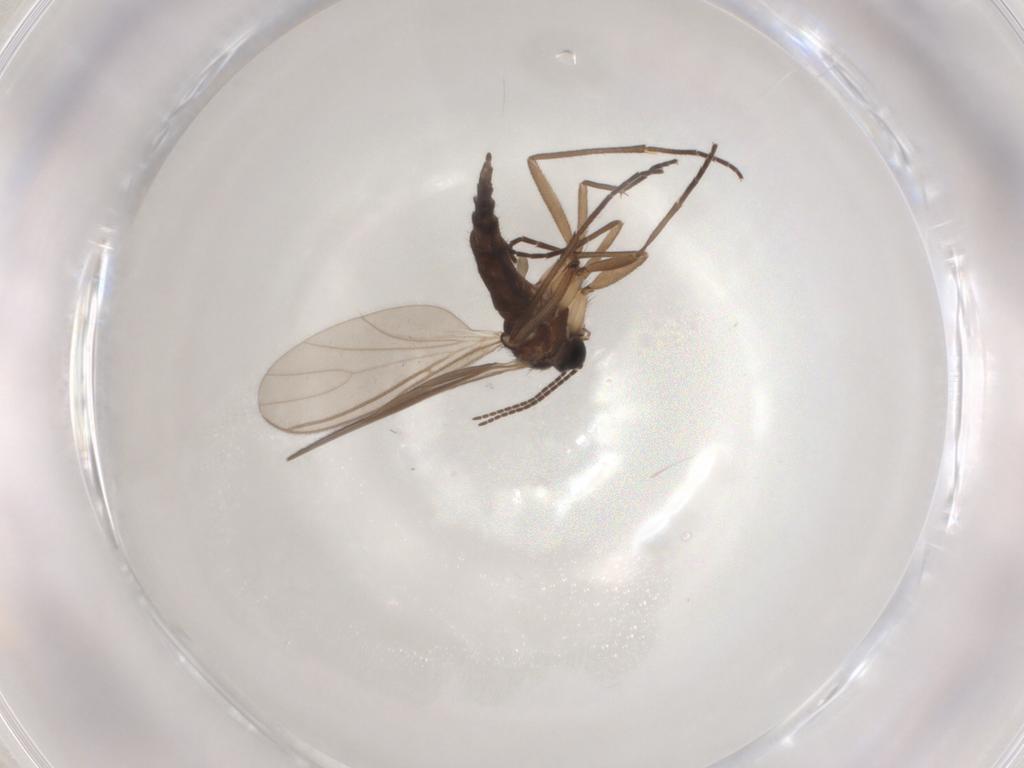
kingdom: Animalia
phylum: Arthropoda
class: Insecta
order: Diptera
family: Sciaridae
